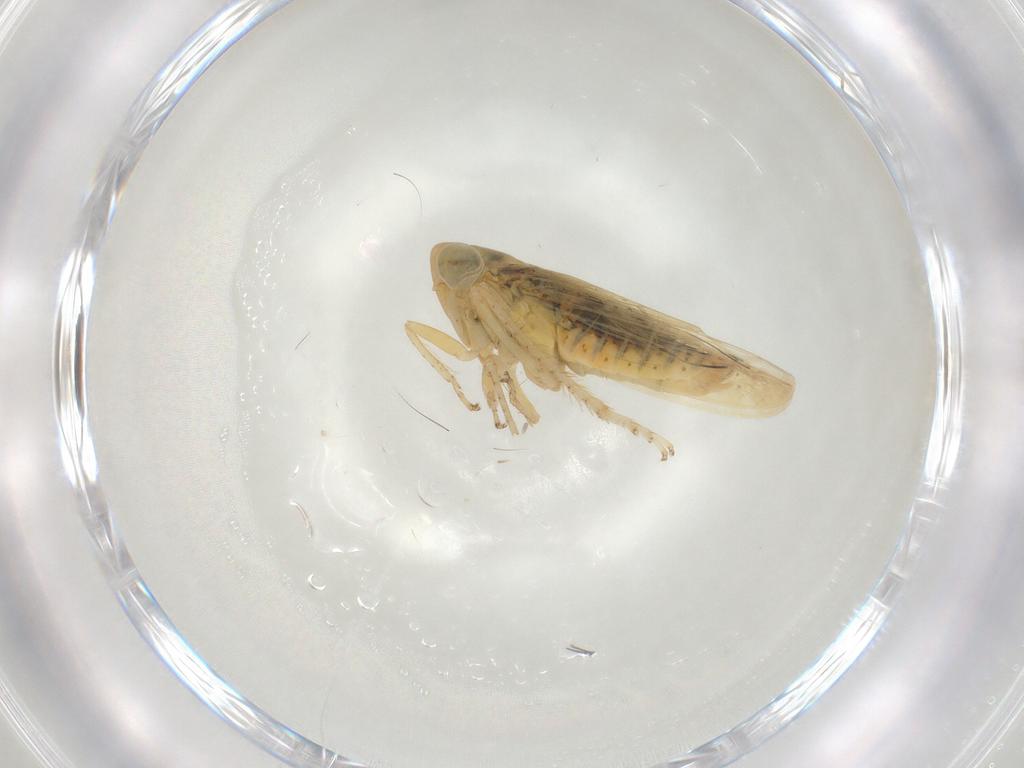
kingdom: Animalia
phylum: Arthropoda
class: Insecta
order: Hemiptera
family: Cicadellidae
